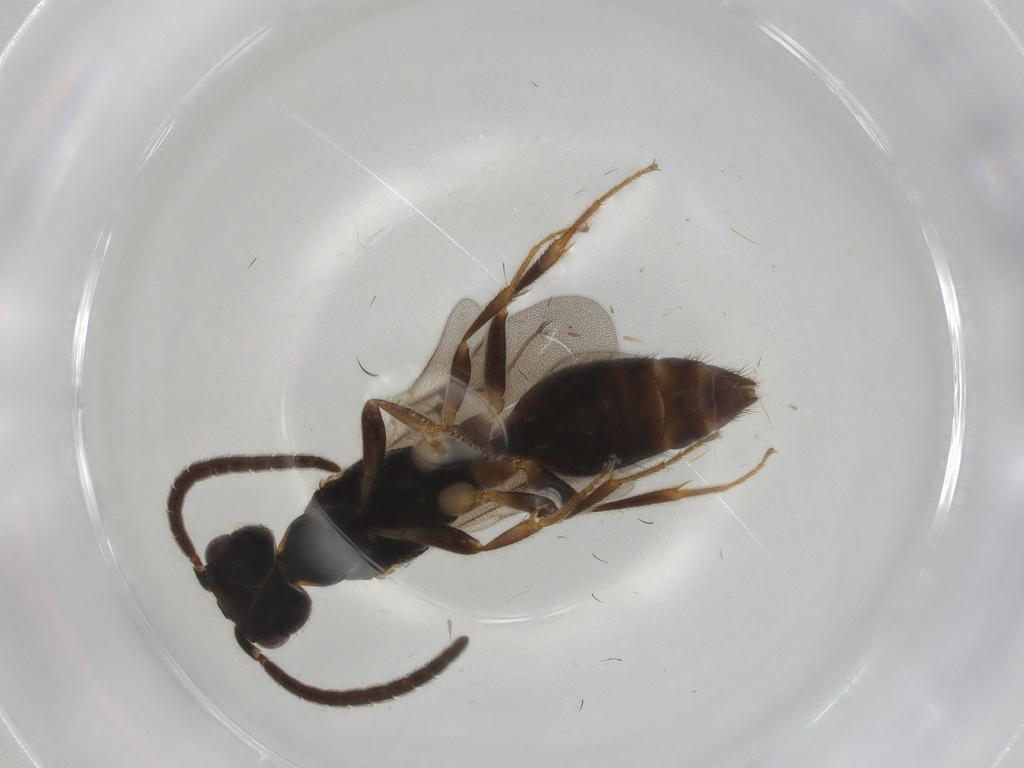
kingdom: Animalia
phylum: Arthropoda
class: Insecta
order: Hymenoptera
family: Bethylidae
